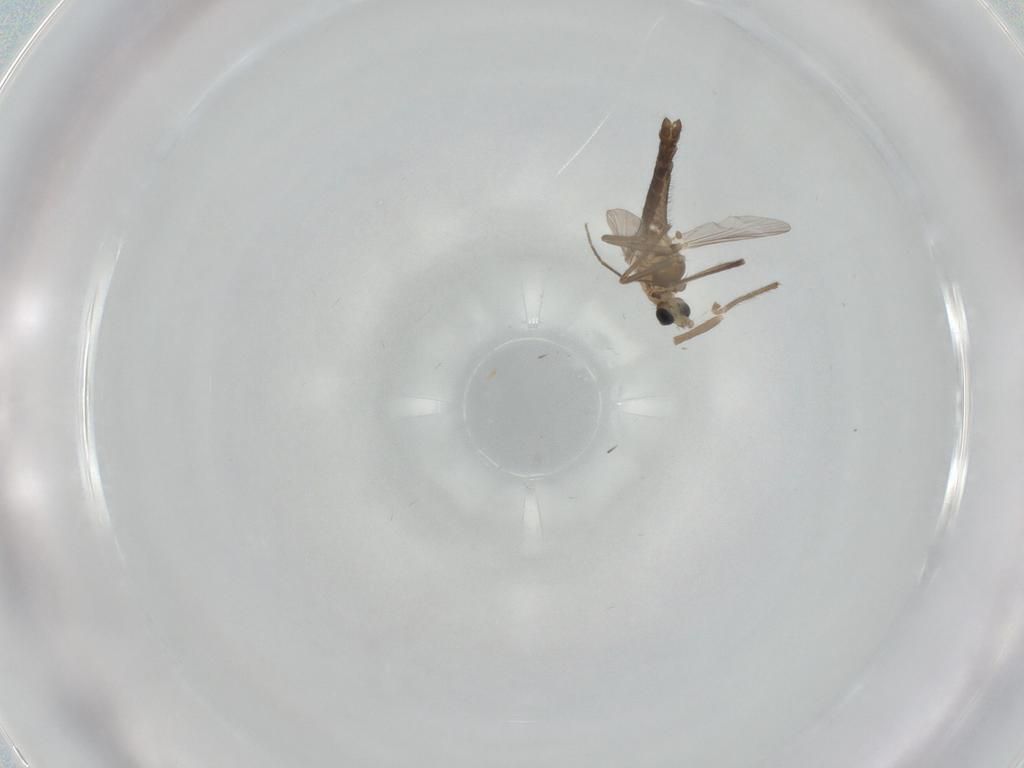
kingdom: Animalia
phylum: Arthropoda
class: Insecta
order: Diptera
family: Chironomidae
